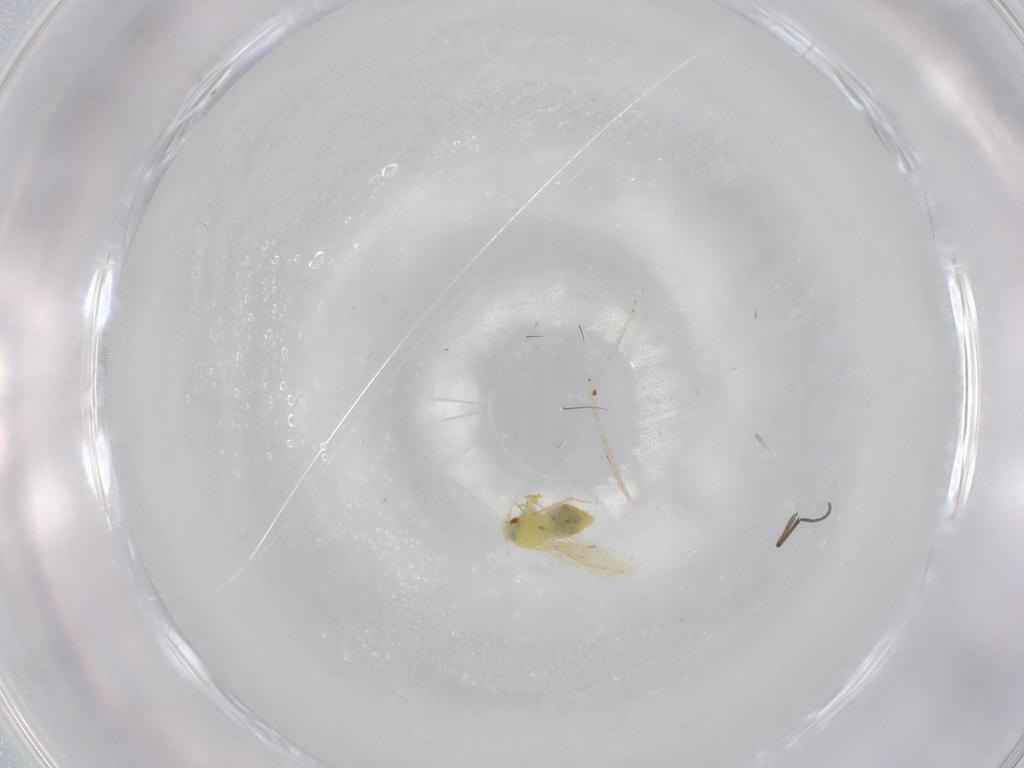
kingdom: Animalia
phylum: Arthropoda
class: Insecta
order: Hemiptera
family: Aleyrodidae
